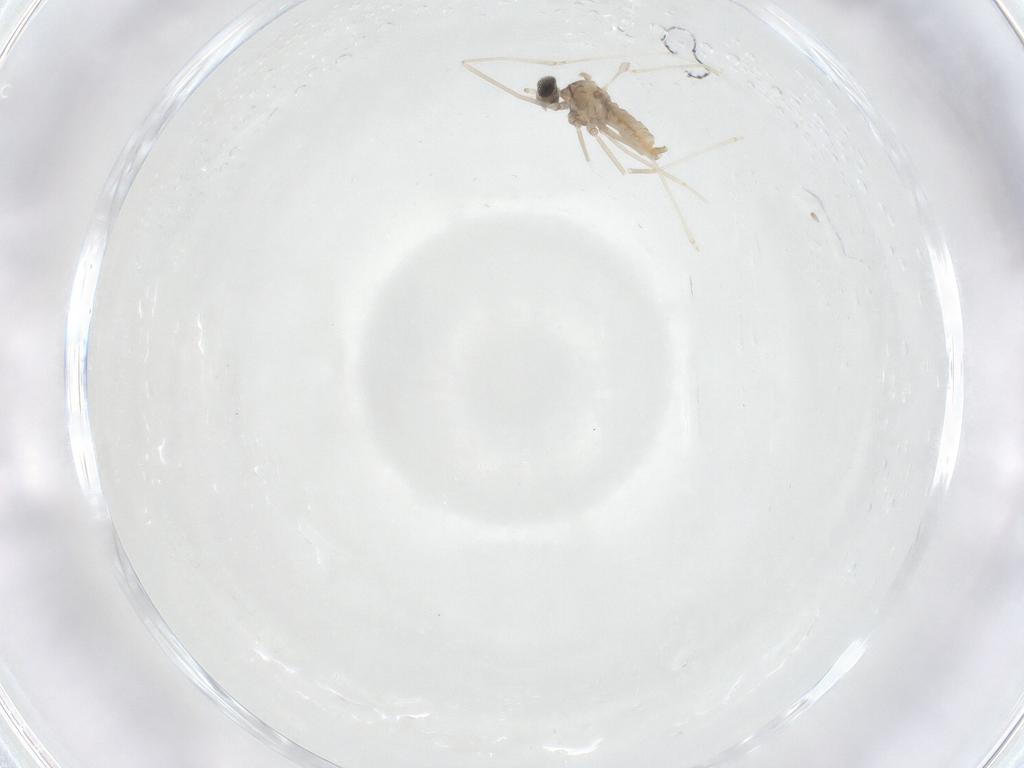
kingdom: Animalia
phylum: Arthropoda
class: Insecta
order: Diptera
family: Cecidomyiidae
